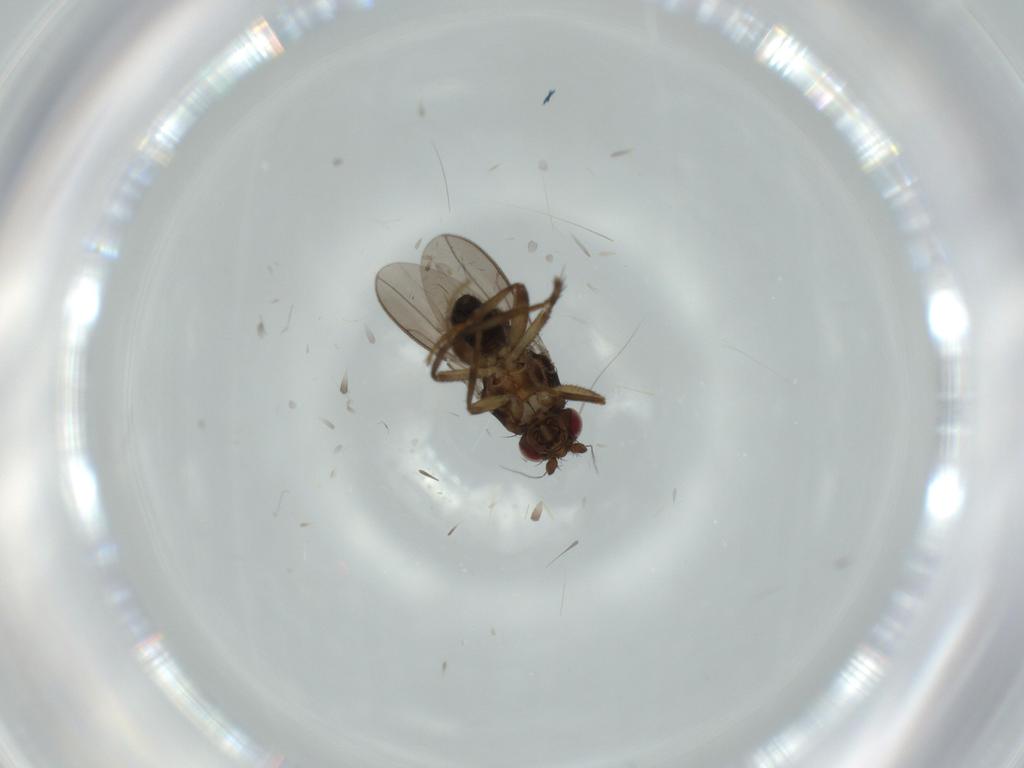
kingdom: Animalia
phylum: Arthropoda
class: Insecta
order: Diptera
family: Sphaeroceridae
